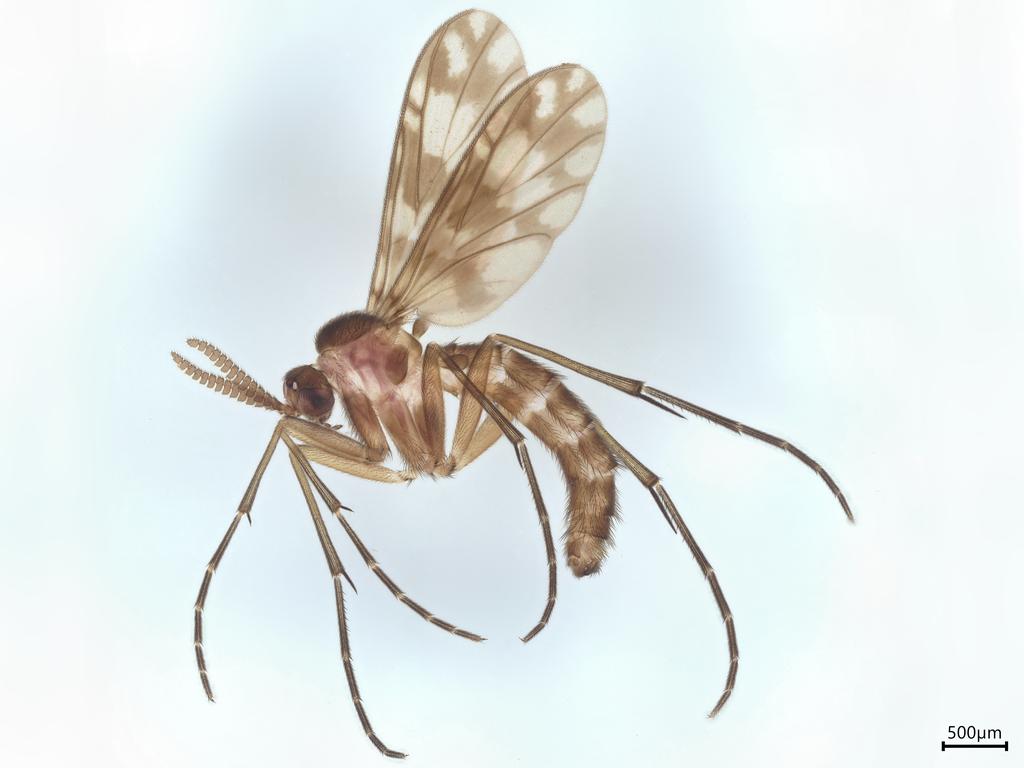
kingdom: Animalia
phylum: Arthropoda
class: Insecta
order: Diptera
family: Keroplatidae
